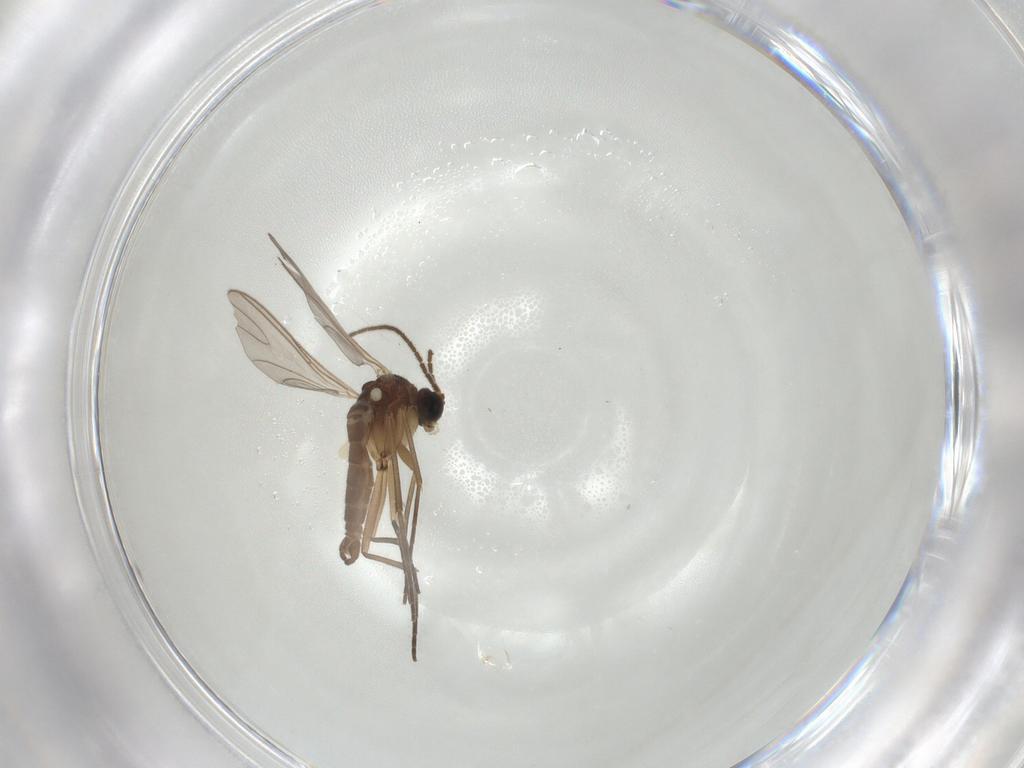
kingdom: Animalia
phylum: Arthropoda
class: Insecta
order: Diptera
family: Sciaridae
